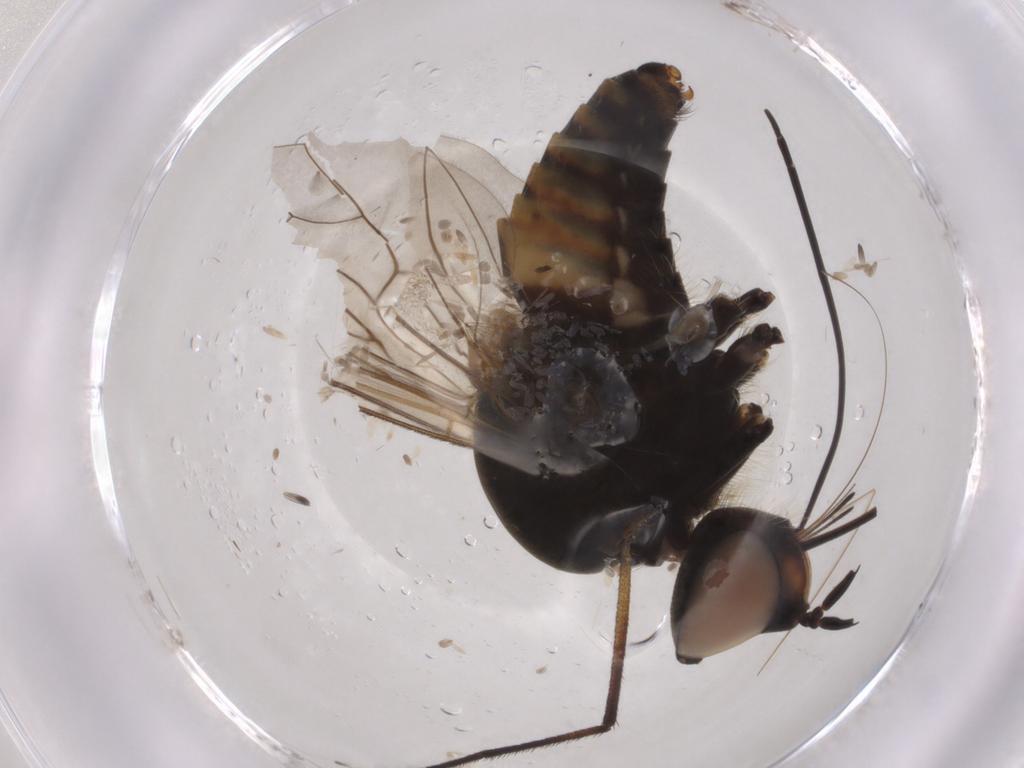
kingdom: Animalia
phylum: Arthropoda
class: Insecta
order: Diptera
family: Bombyliidae
